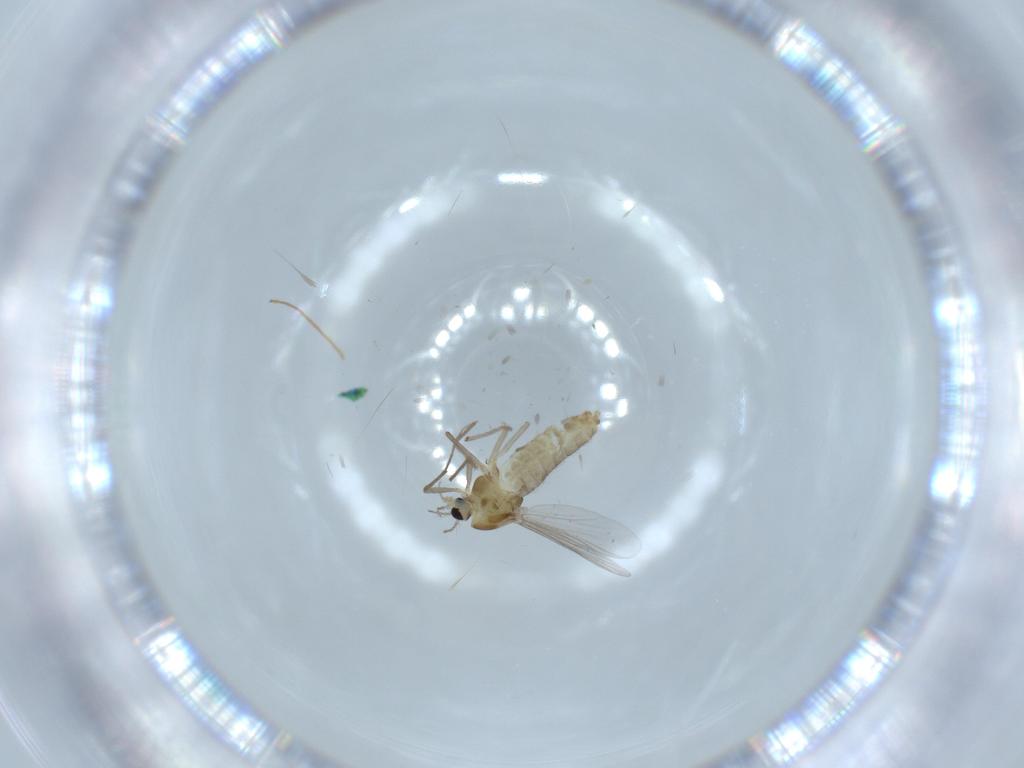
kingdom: Animalia
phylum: Arthropoda
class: Insecta
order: Diptera
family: Chironomidae
